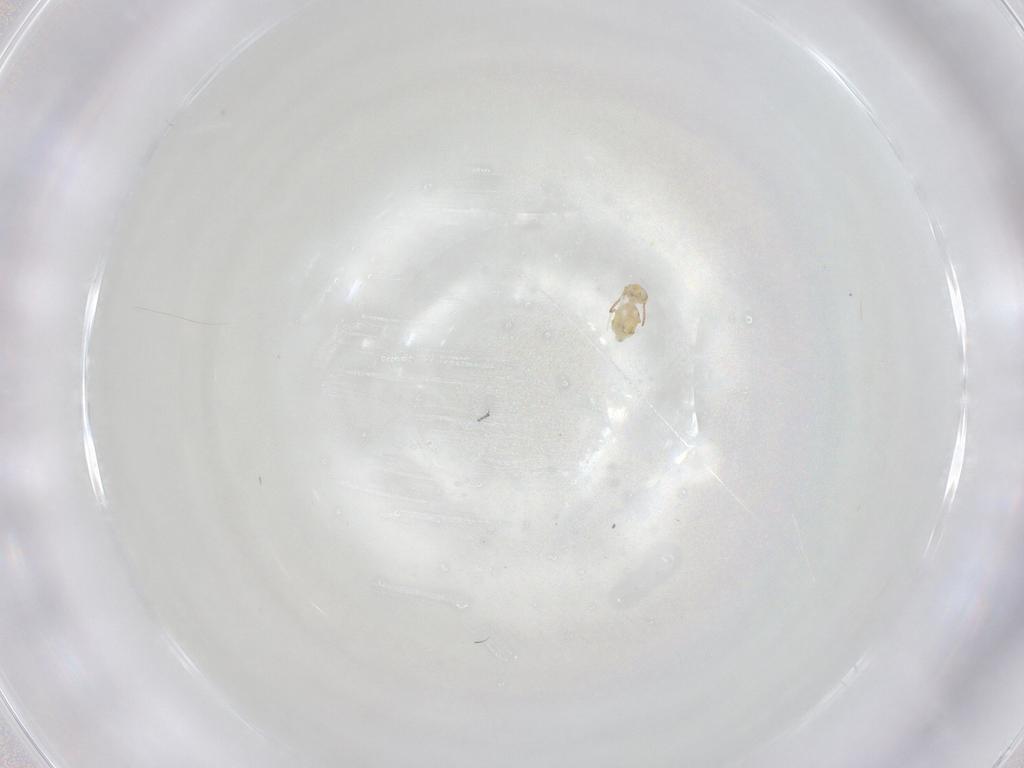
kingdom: Animalia
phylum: Arthropoda
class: Collembola
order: Symphypleona
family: Bourletiellidae
